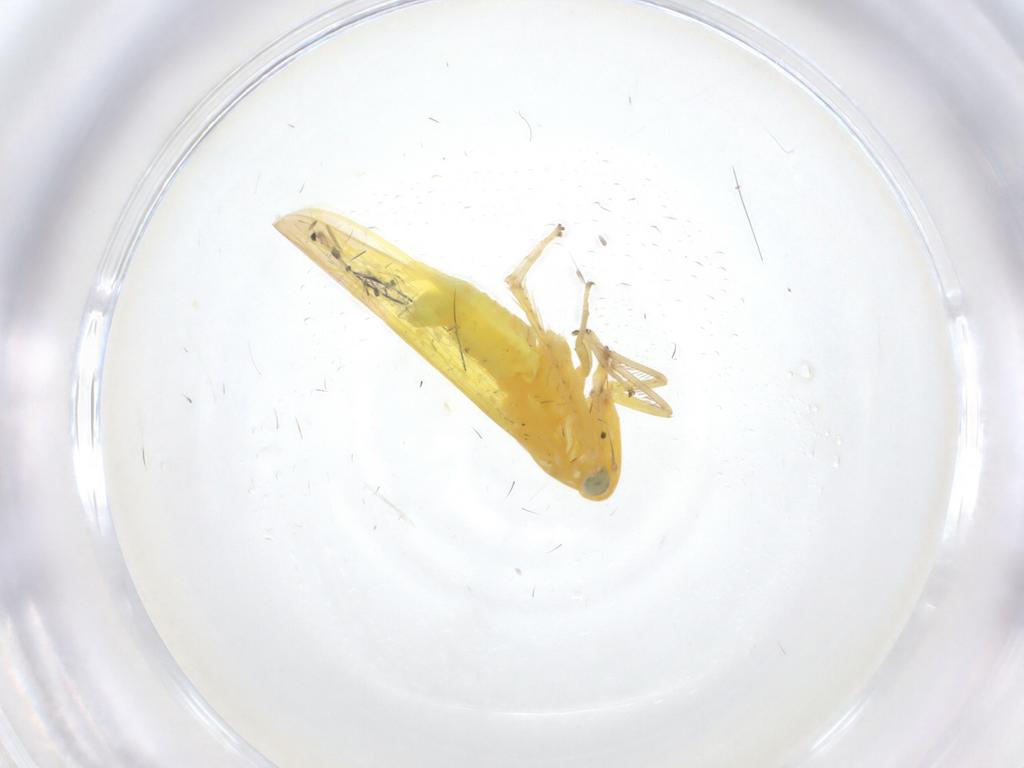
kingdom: Animalia
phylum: Arthropoda
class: Insecta
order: Hemiptera
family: Cicadellidae
